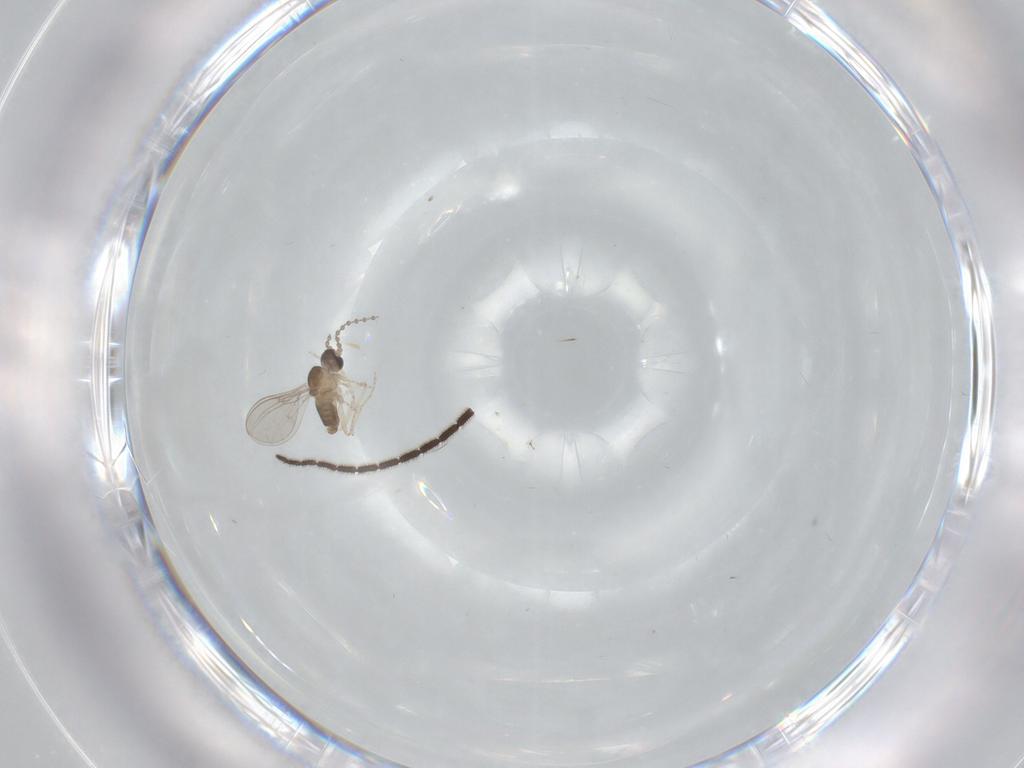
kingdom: Animalia
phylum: Arthropoda
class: Insecta
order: Diptera
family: Sciaridae
